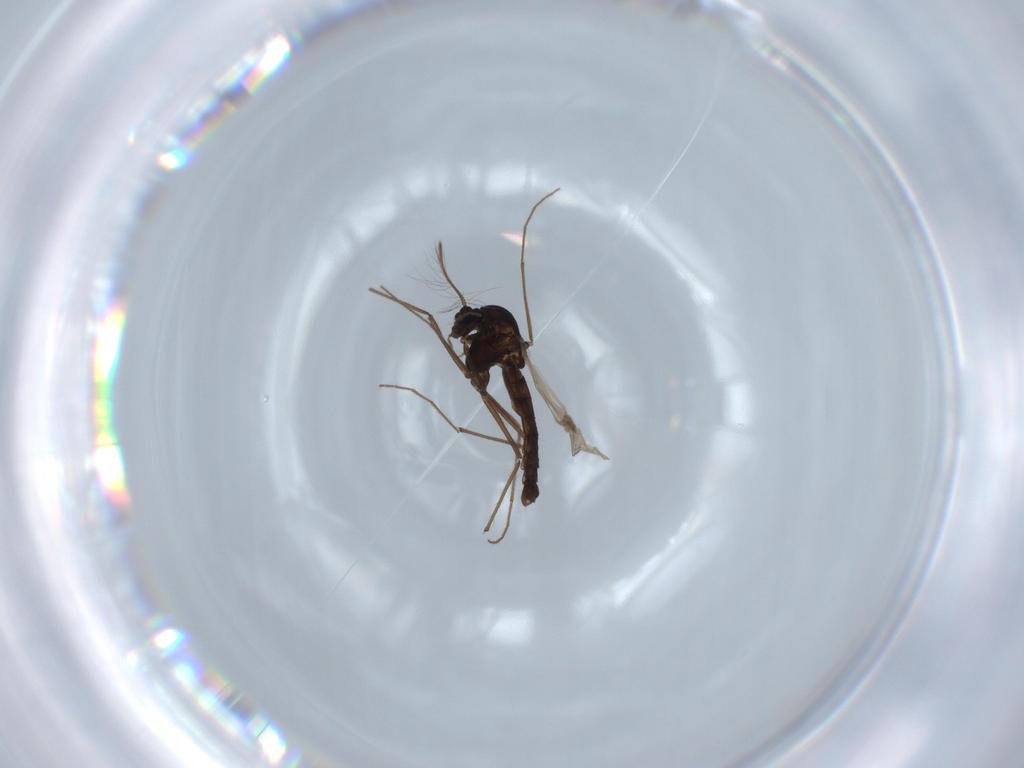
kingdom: Animalia
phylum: Arthropoda
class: Insecta
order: Diptera
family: Chironomidae
